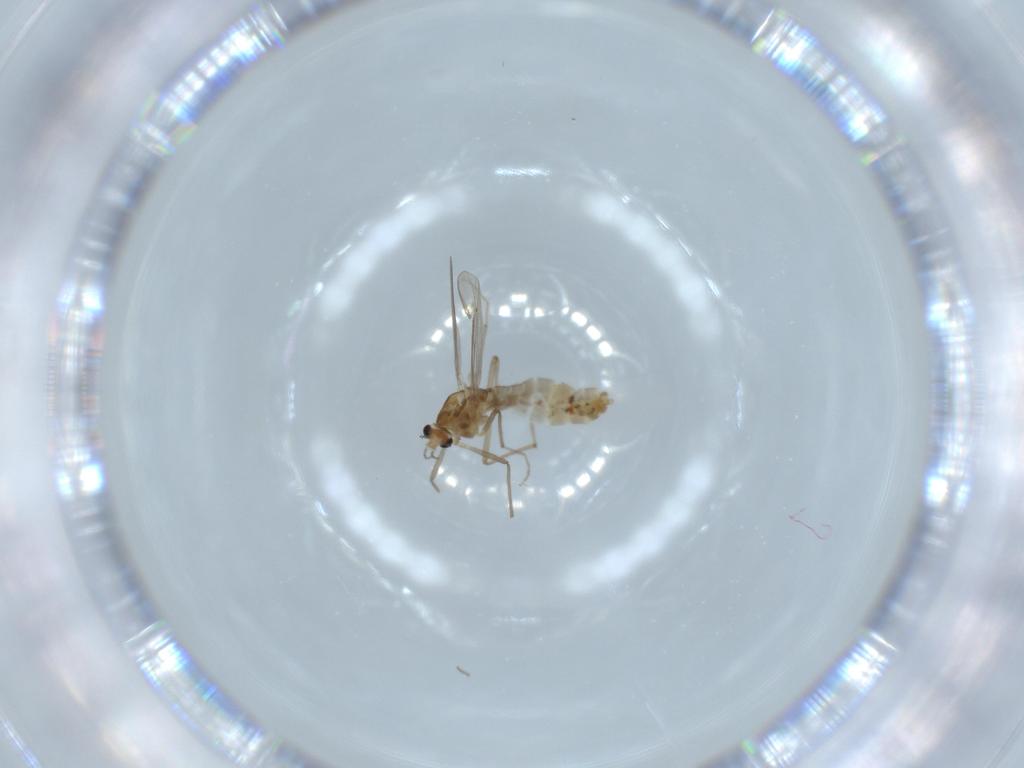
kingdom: Animalia
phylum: Arthropoda
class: Insecta
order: Diptera
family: Chironomidae
